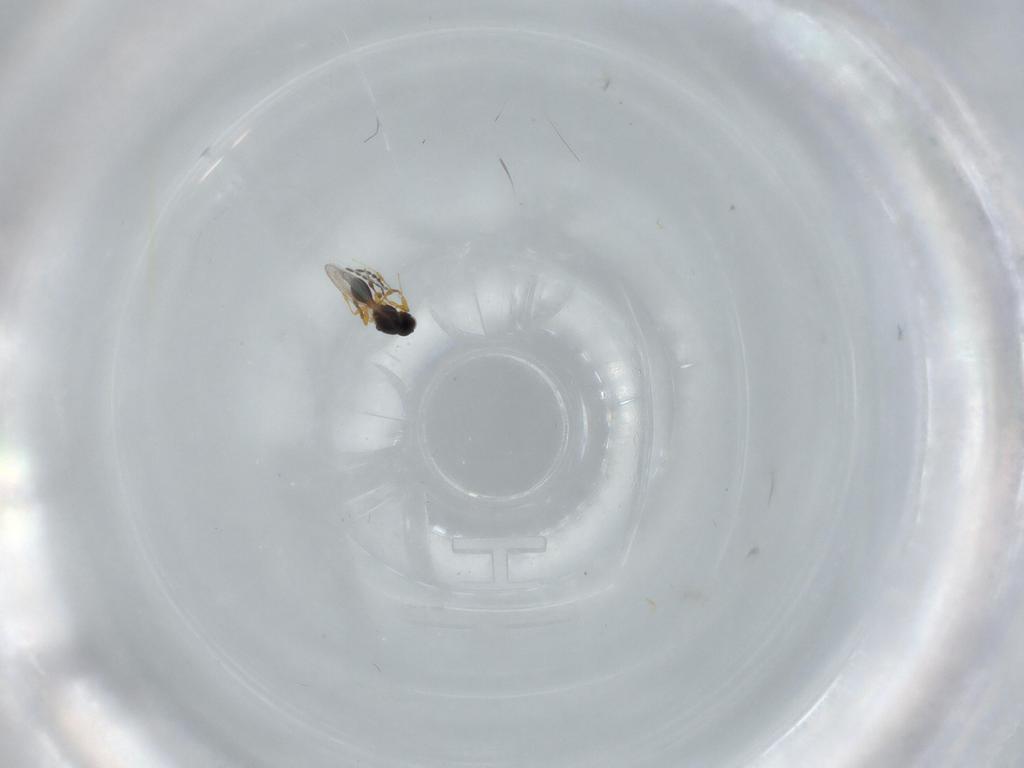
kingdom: Animalia
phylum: Arthropoda
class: Insecta
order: Hymenoptera
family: Platygastridae
